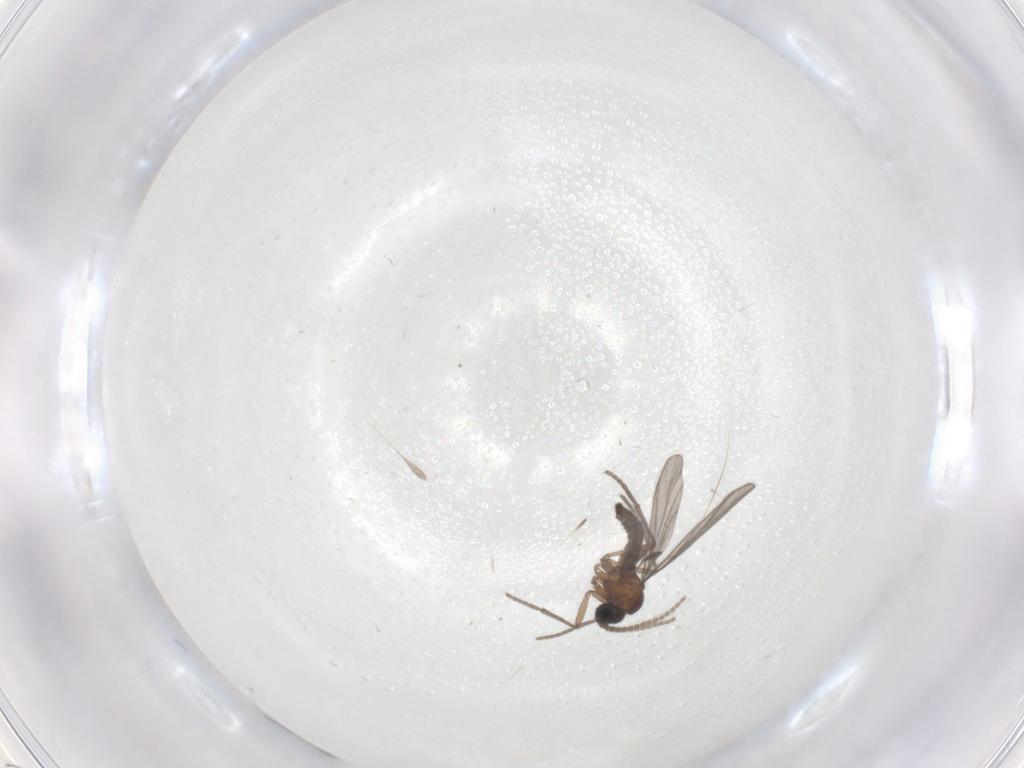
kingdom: Animalia
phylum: Arthropoda
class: Insecta
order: Diptera
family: Sciaridae
